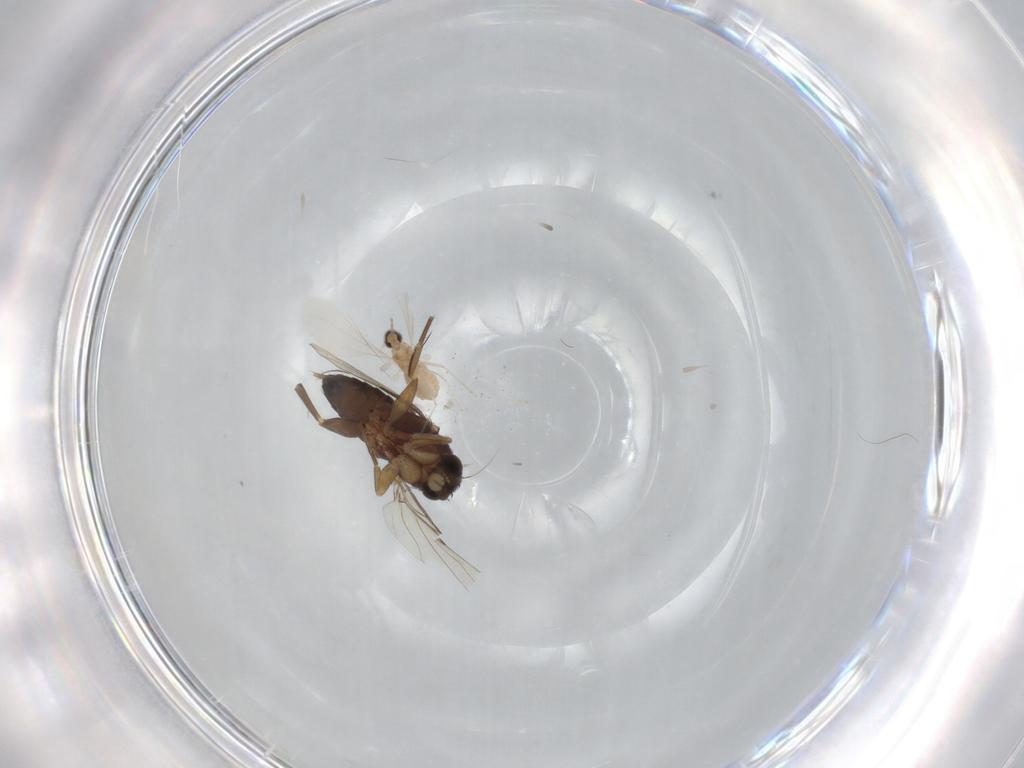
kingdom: Animalia
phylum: Arthropoda
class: Insecta
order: Diptera
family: Phoridae
